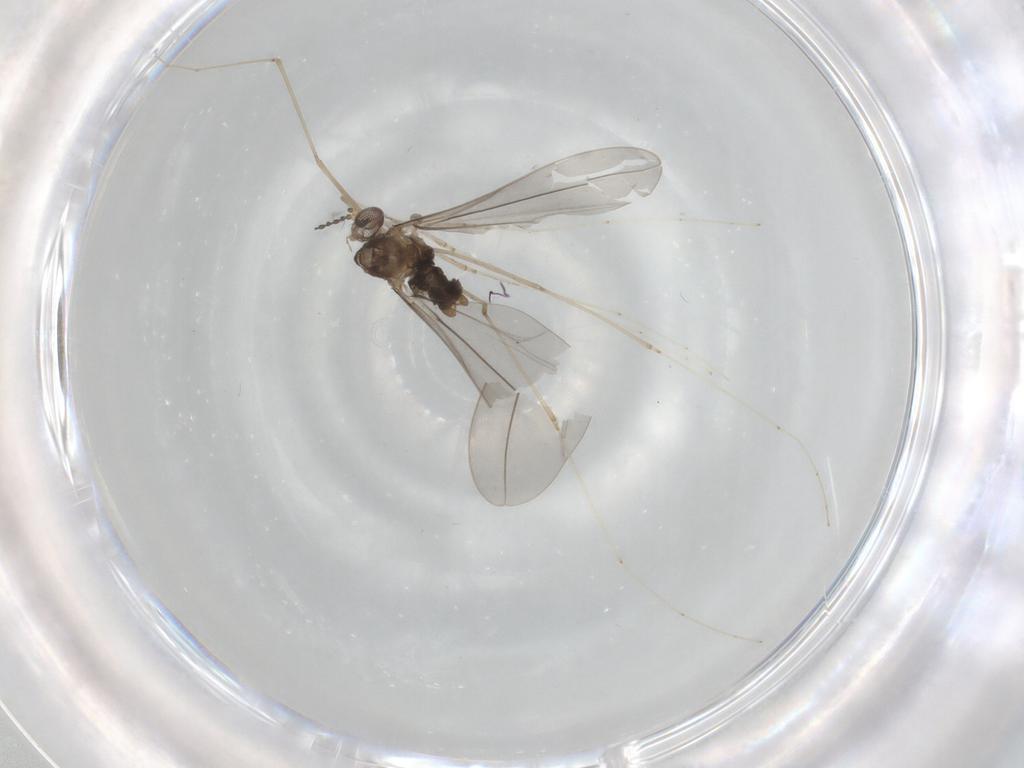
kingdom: Animalia
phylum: Arthropoda
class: Insecta
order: Diptera
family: Cecidomyiidae
